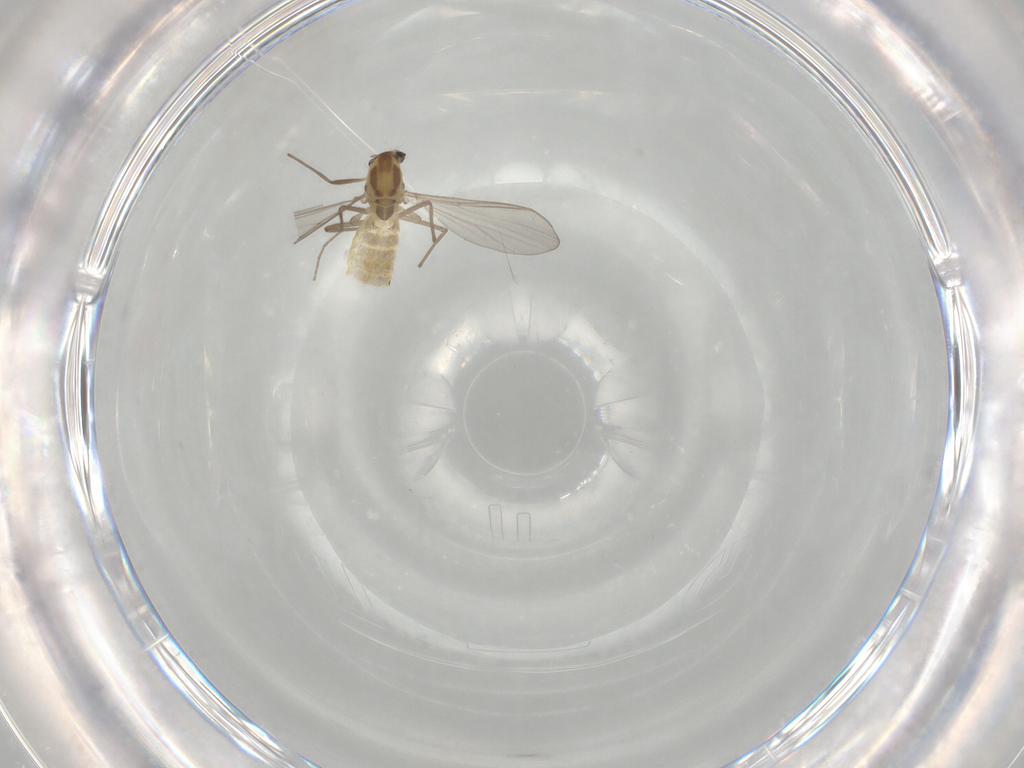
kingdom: Animalia
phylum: Arthropoda
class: Insecta
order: Diptera
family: Chironomidae
